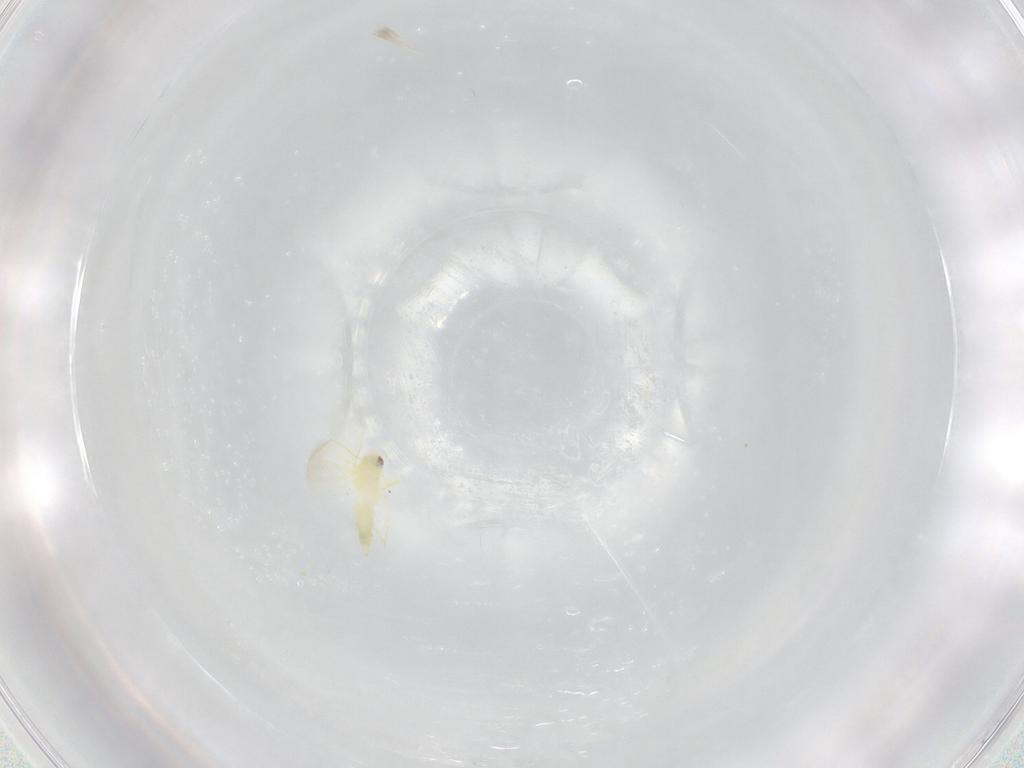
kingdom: Animalia
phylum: Arthropoda
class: Insecta
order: Hemiptera
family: Aleyrodidae
